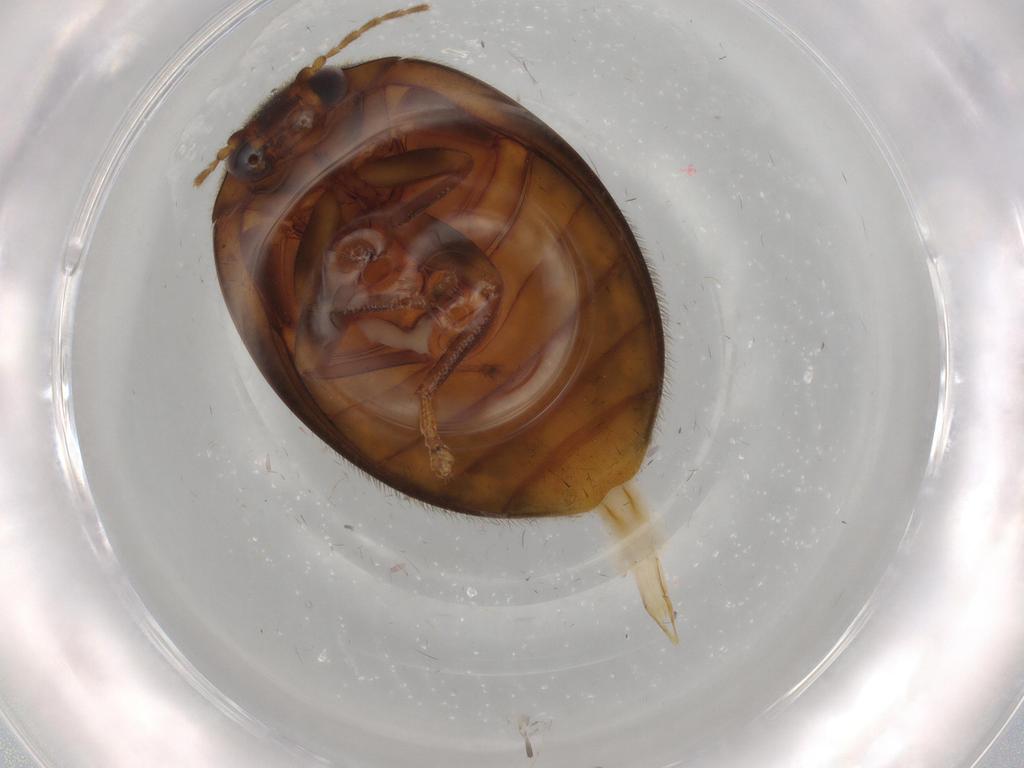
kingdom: Animalia
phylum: Arthropoda
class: Insecta
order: Coleoptera
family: Scirtidae
